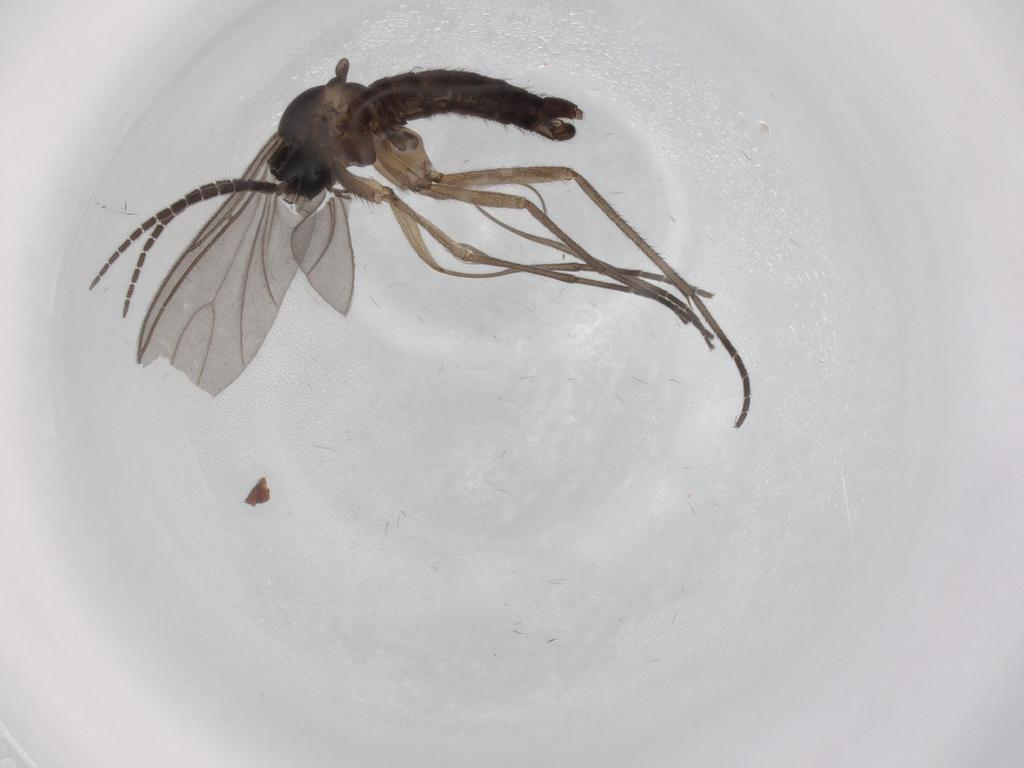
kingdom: Animalia
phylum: Arthropoda
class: Insecta
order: Diptera
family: Sciaridae
